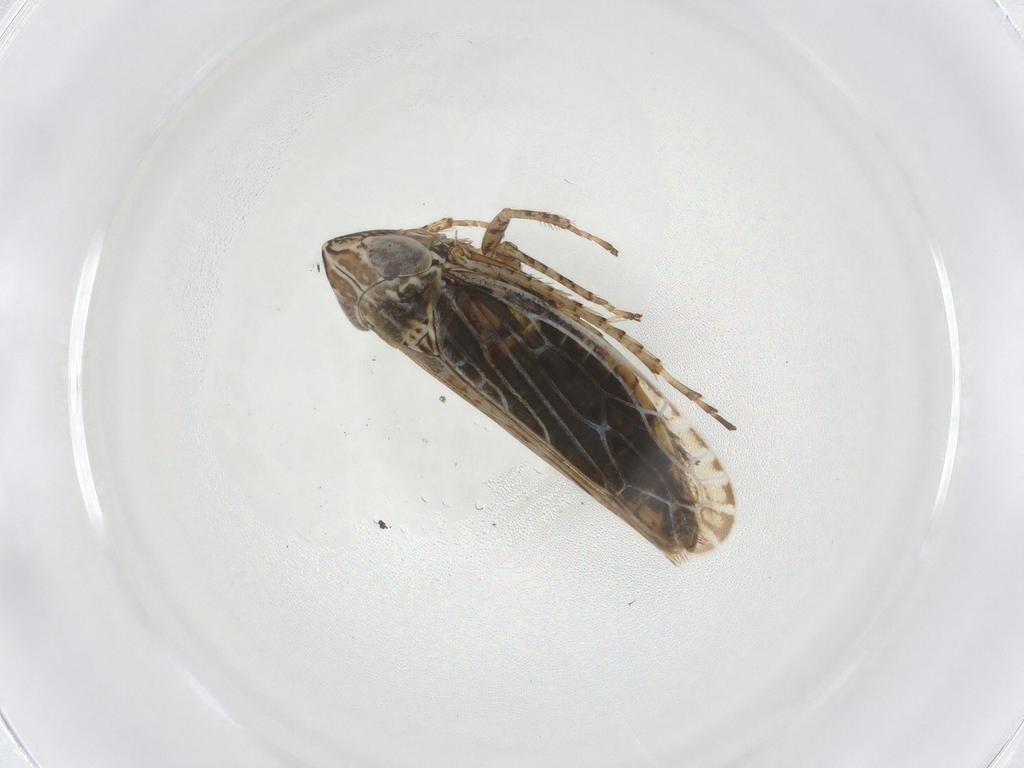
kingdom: Animalia
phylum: Arthropoda
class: Insecta
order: Hemiptera
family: Cicadellidae
